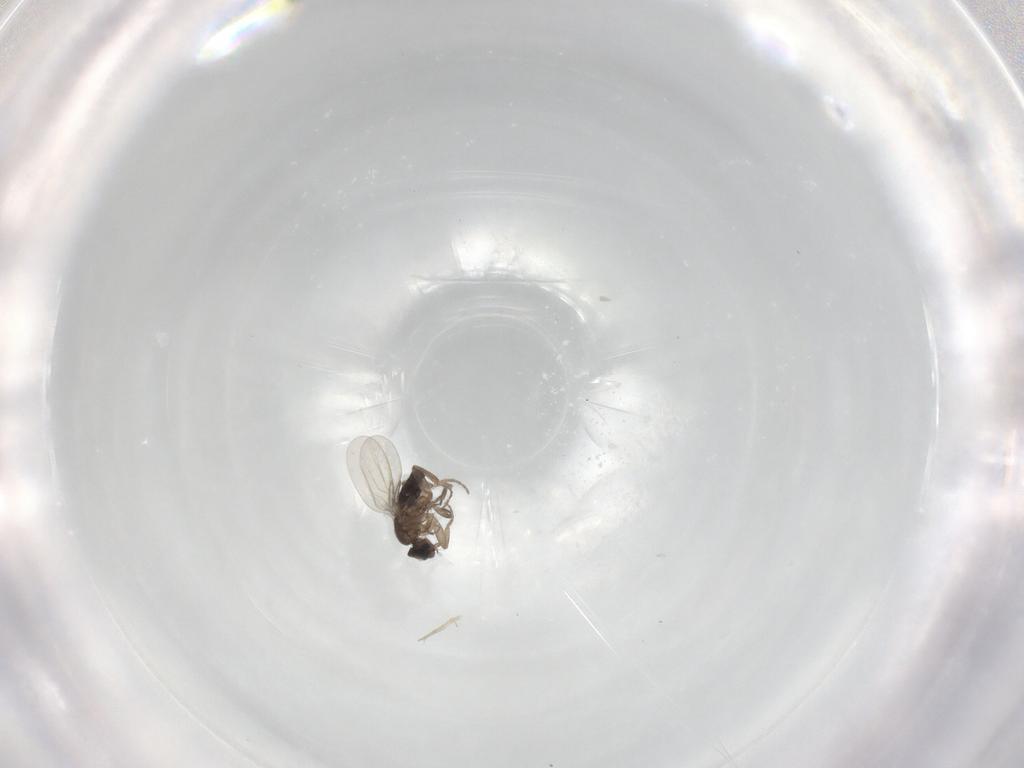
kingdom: Animalia
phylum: Arthropoda
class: Insecta
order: Diptera
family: Phoridae
